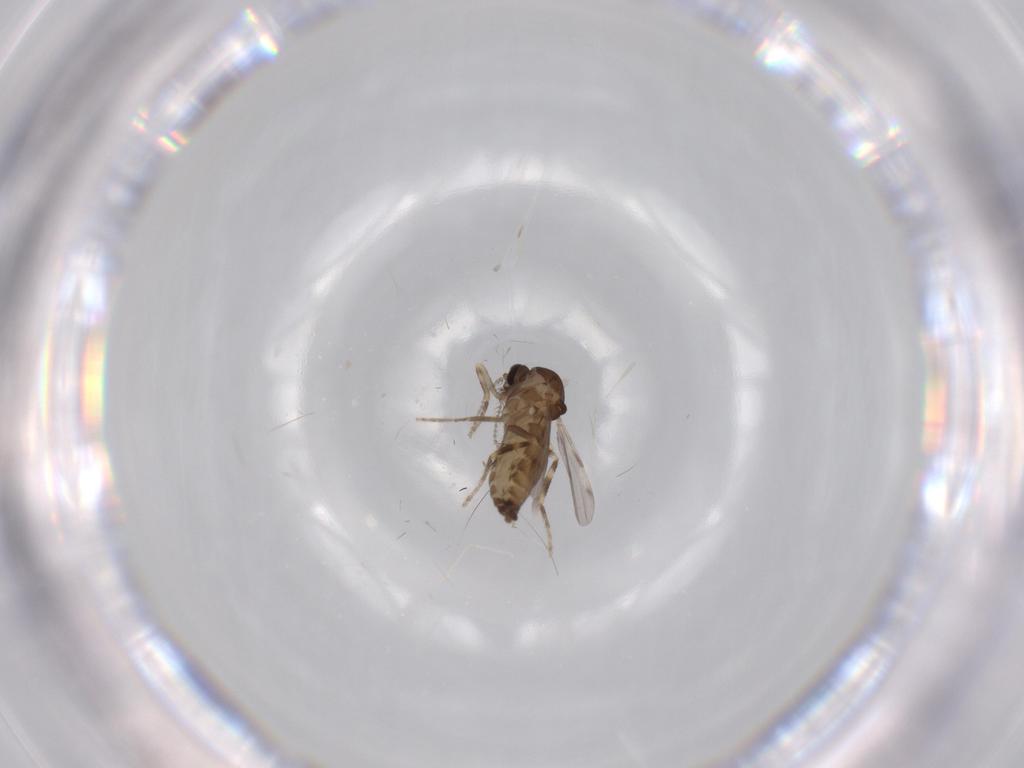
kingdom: Animalia
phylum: Arthropoda
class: Insecta
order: Diptera
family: Ceratopogonidae
